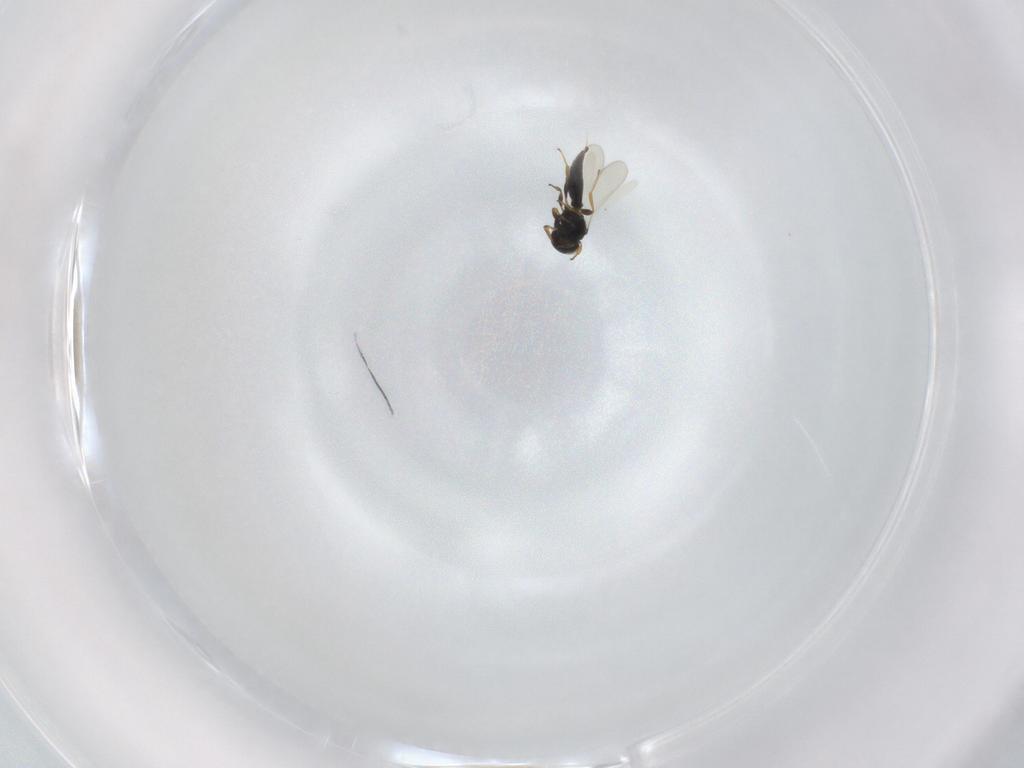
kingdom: Animalia
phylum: Arthropoda
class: Insecta
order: Hymenoptera
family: Platygastridae
